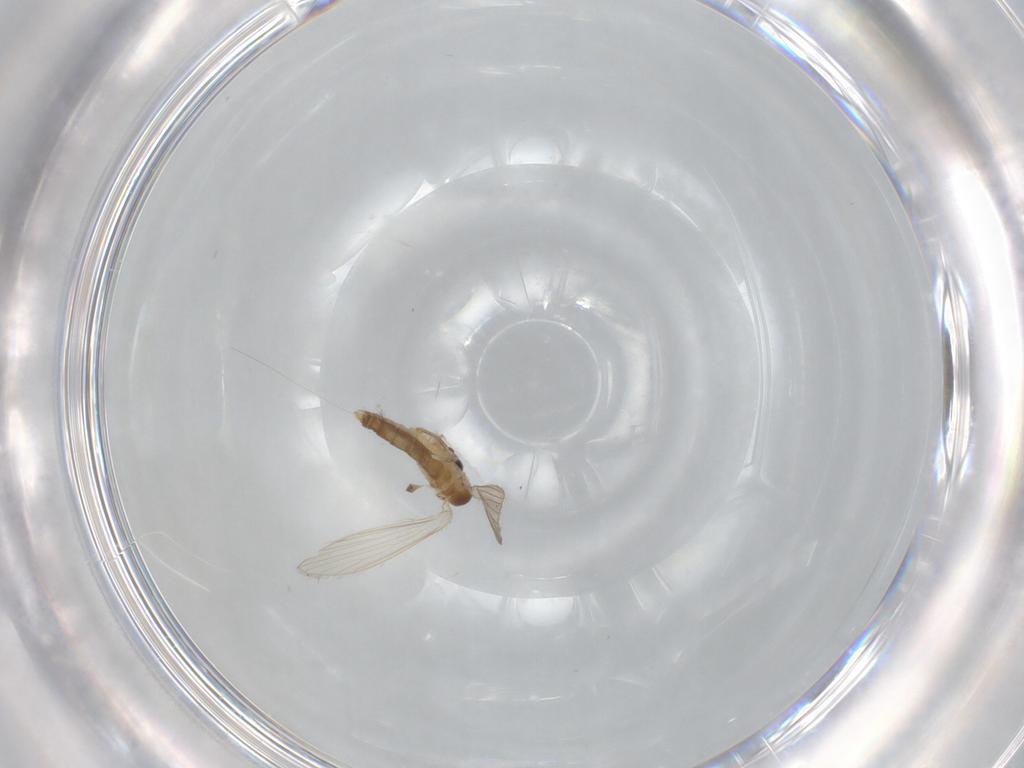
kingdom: Animalia
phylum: Arthropoda
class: Insecta
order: Diptera
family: Psychodidae
